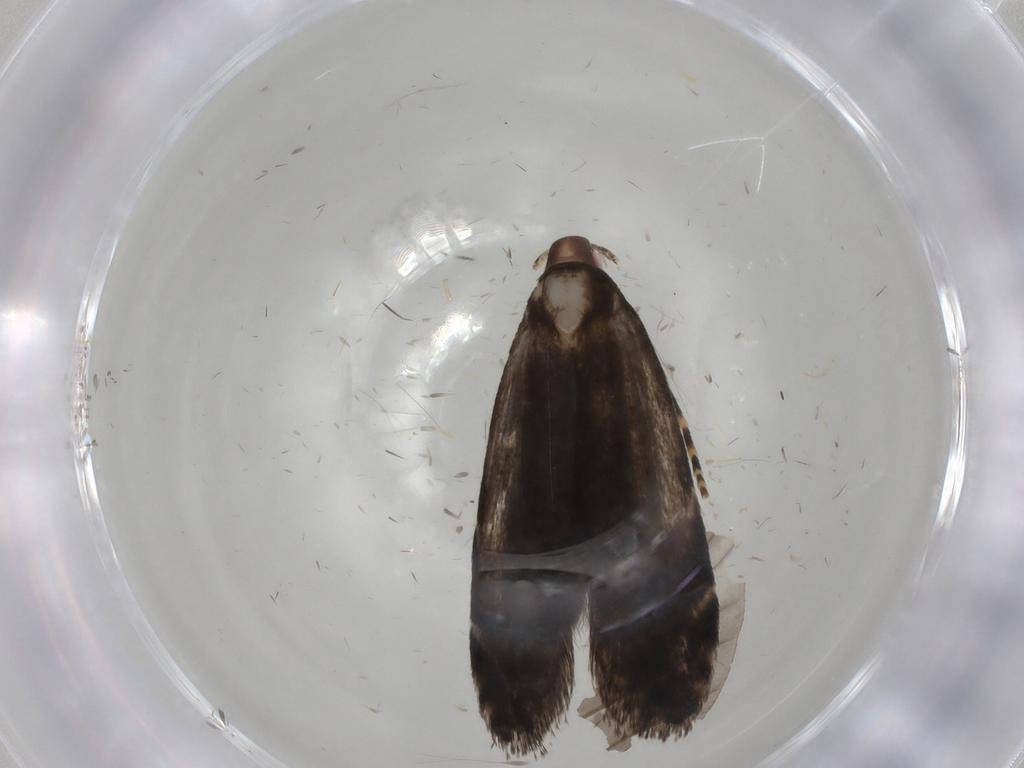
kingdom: Animalia
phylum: Arthropoda
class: Insecta
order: Lepidoptera
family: Gelechiidae
